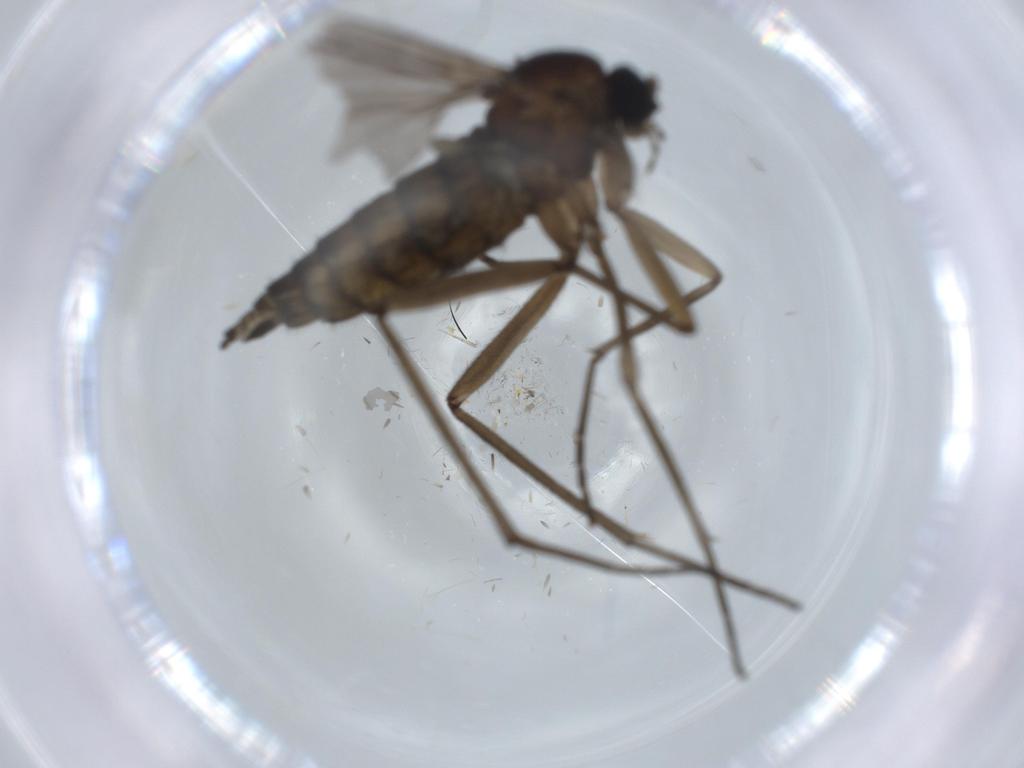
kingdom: Animalia
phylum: Arthropoda
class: Insecta
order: Diptera
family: Sciaridae
